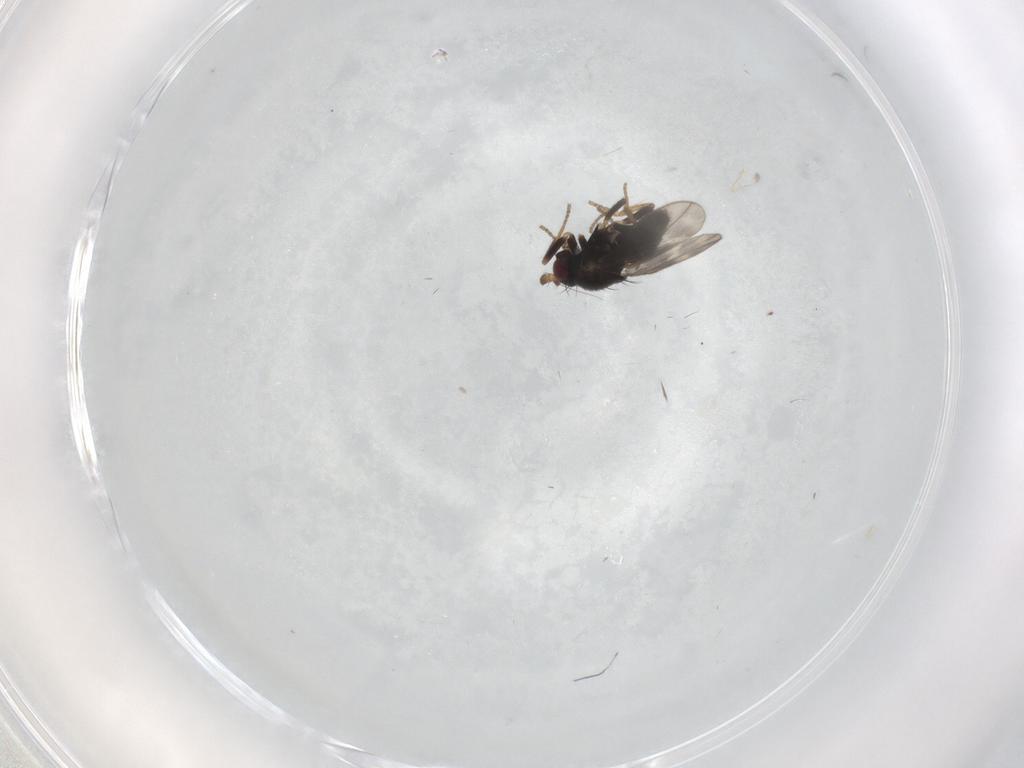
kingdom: Animalia
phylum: Arthropoda
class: Insecta
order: Diptera
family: Sphaeroceridae
